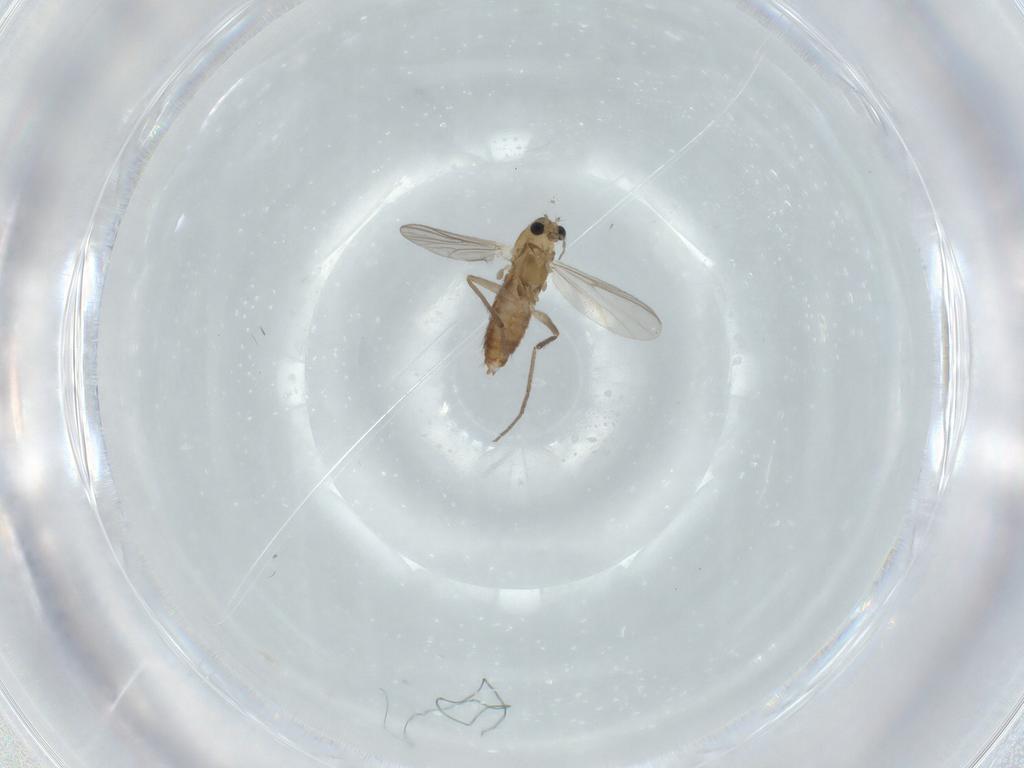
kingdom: Animalia
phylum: Arthropoda
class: Insecta
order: Diptera
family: Chironomidae
